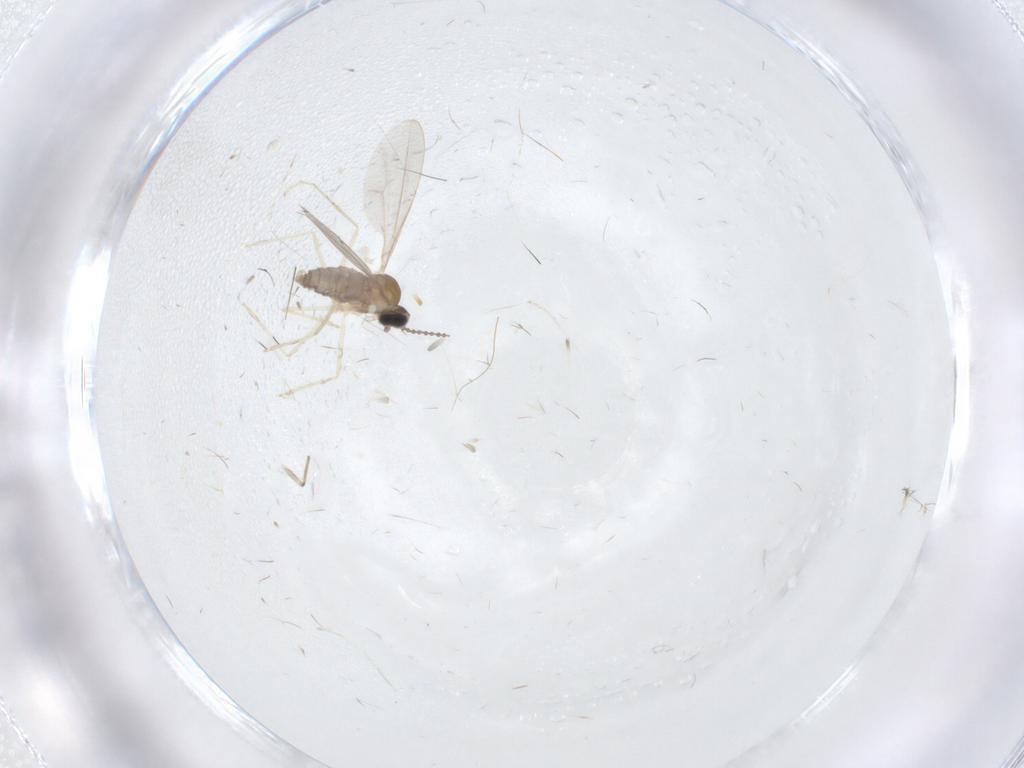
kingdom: Animalia
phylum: Arthropoda
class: Insecta
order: Diptera
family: Cecidomyiidae
